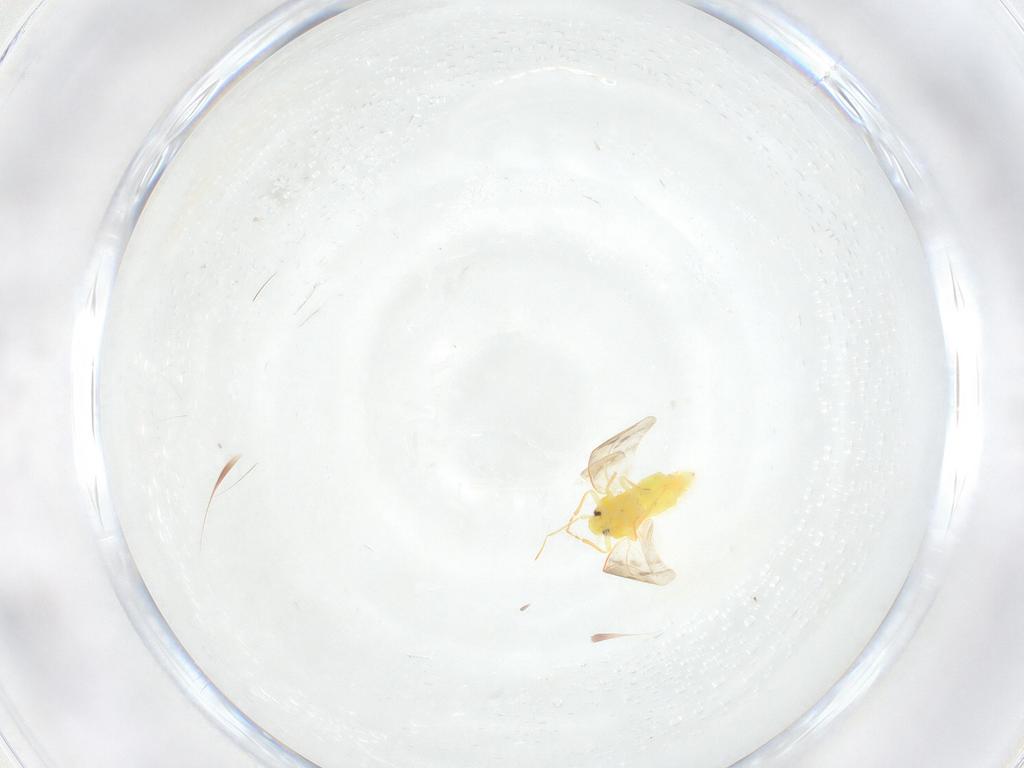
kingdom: Animalia
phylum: Arthropoda
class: Insecta
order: Hemiptera
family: Aleyrodidae
